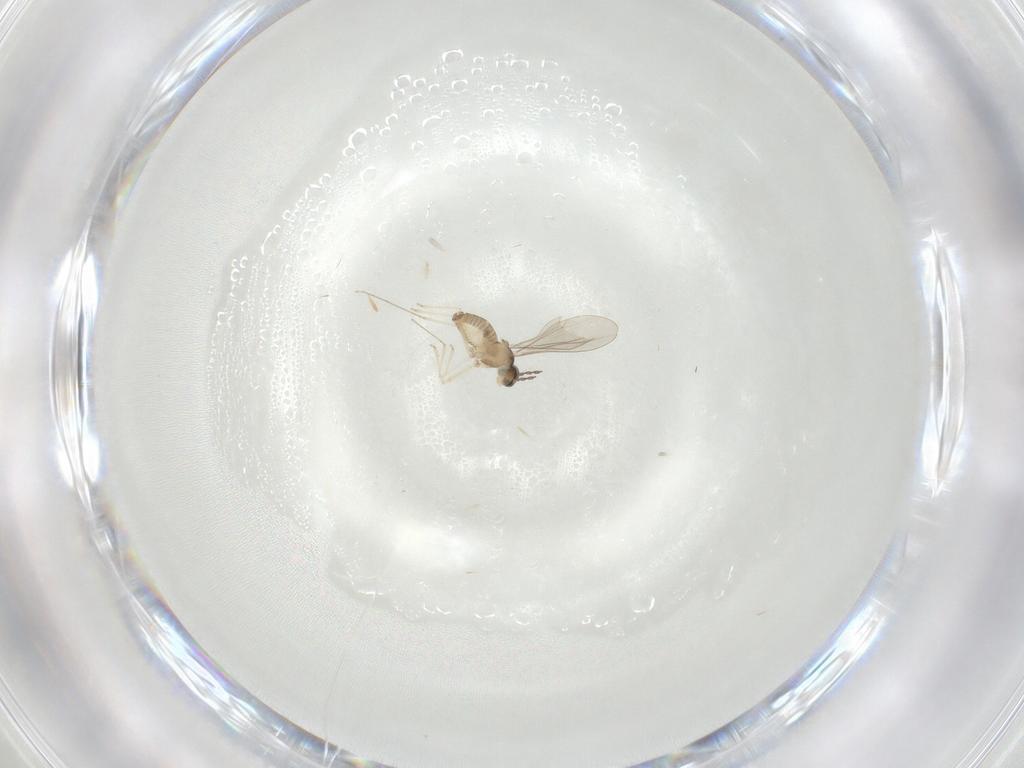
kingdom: Animalia
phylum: Arthropoda
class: Insecta
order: Diptera
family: Cecidomyiidae
